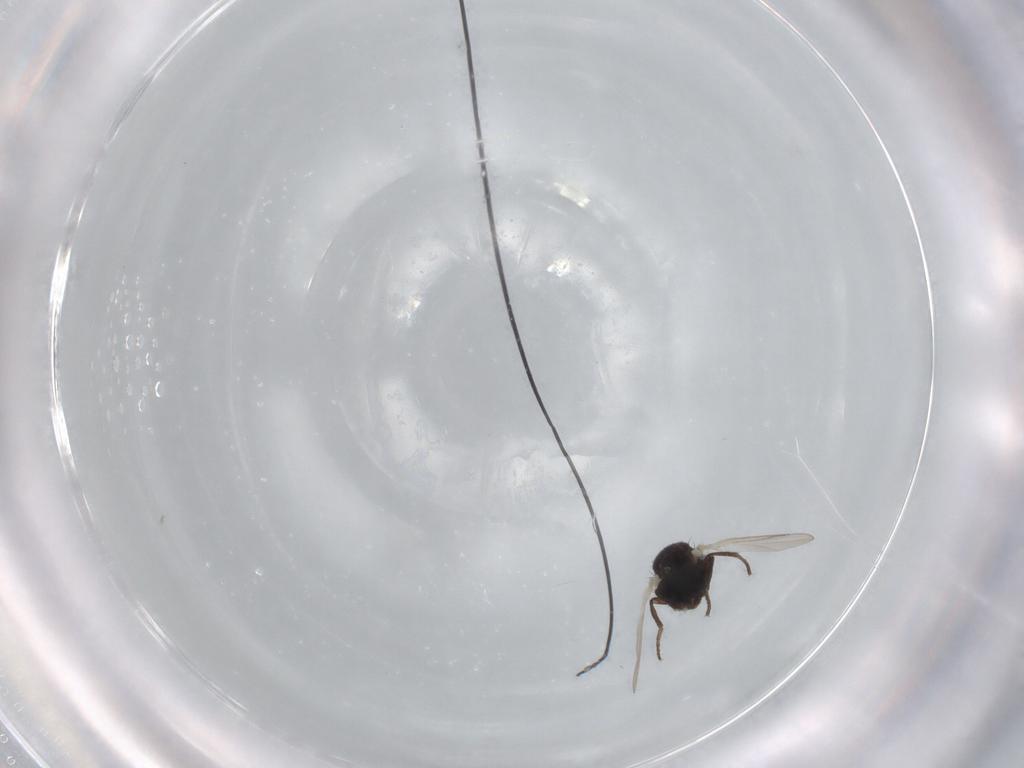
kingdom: Animalia
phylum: Arthropoda
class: Insecta
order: Diptera
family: Agromyzidae
